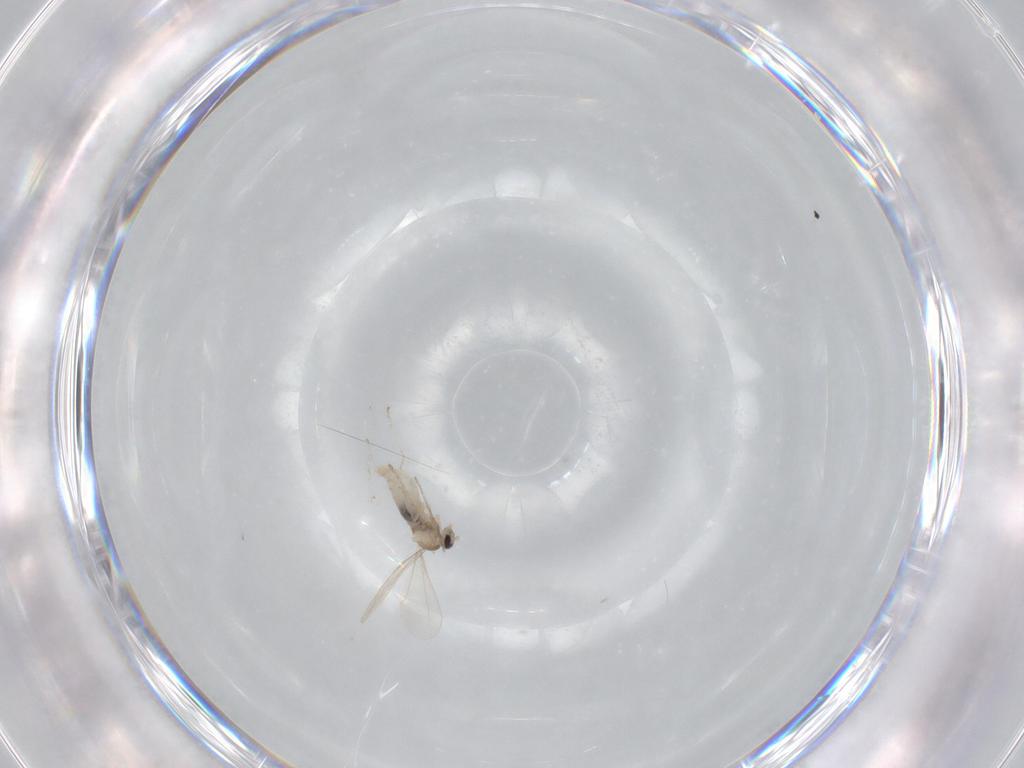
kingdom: Animalia
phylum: Arthropoda
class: Insecta
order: Diptera
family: Cecidomyiidae
